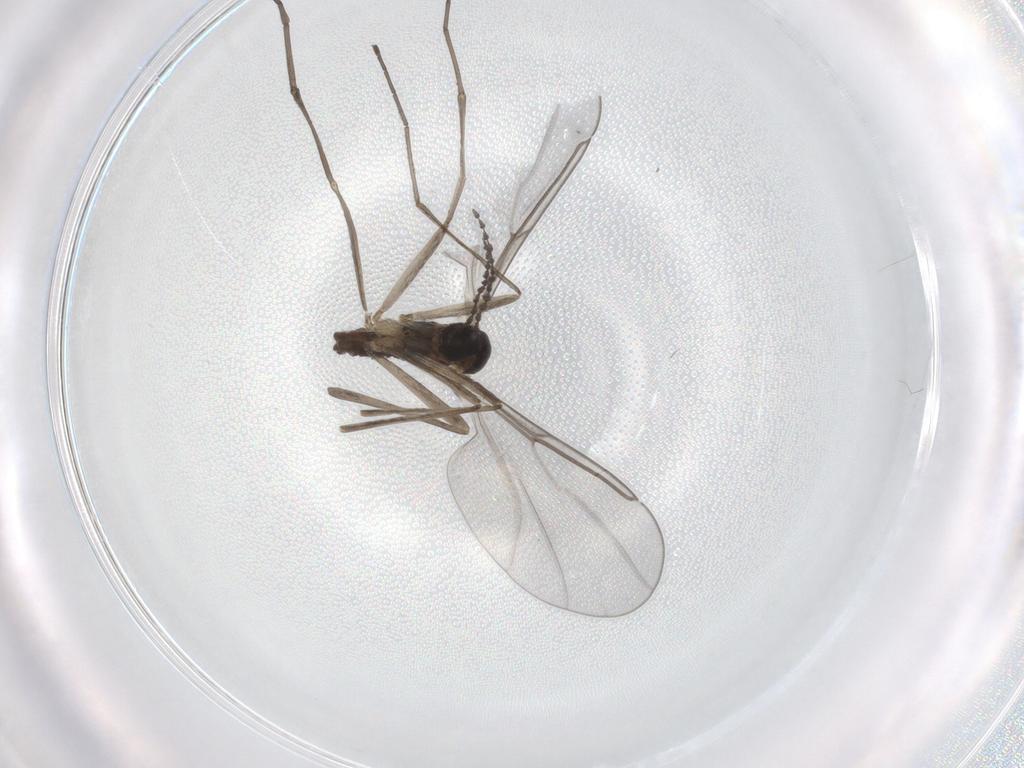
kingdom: Animalia
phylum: Arthropoda
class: Insecta
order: Diptera
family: Cecidomyiidae
